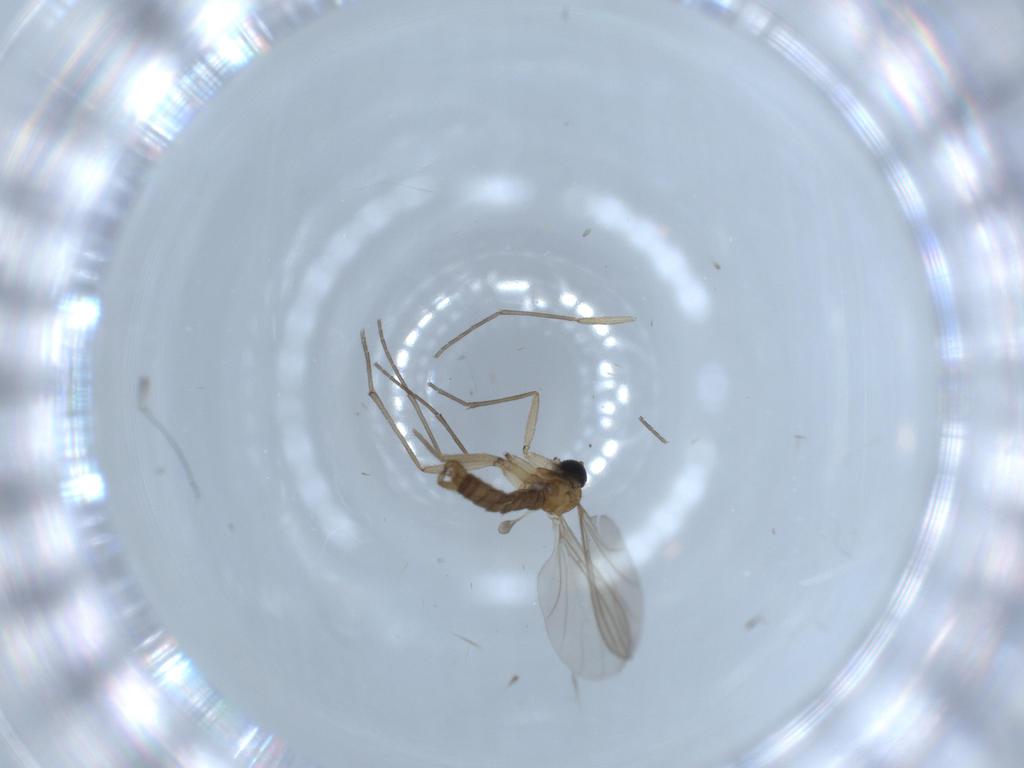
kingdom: Animalia
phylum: Arthropoda
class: Insecta
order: Diptera
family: Sciaridae
